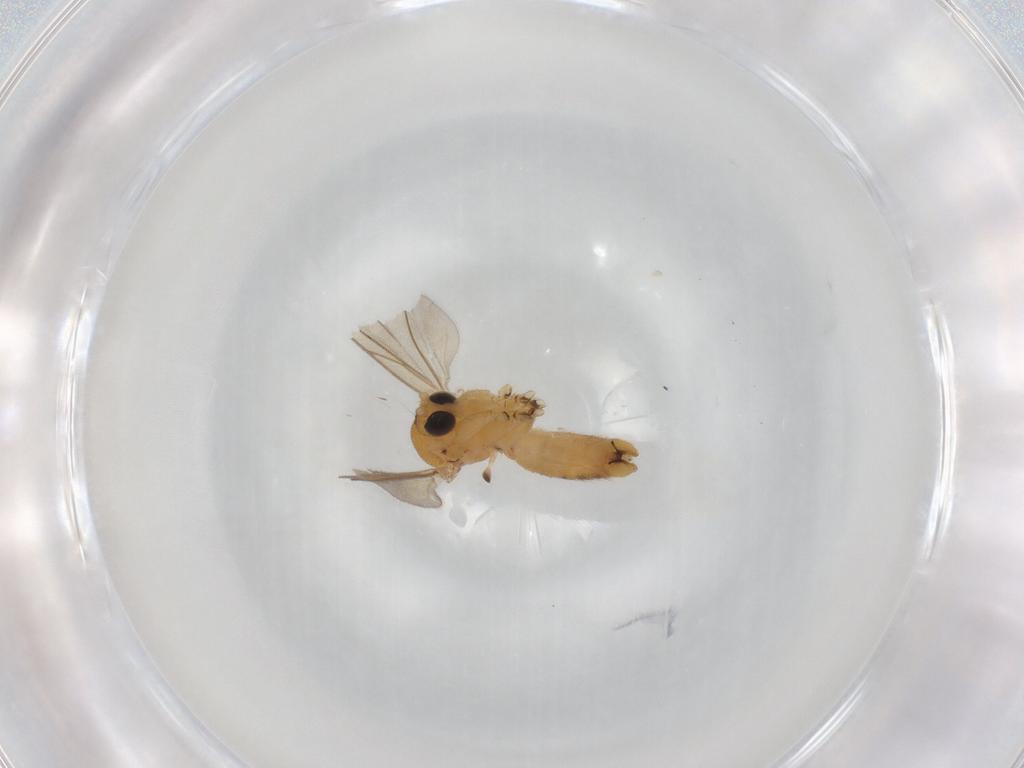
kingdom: Animalia
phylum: Arthropoda
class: Insecta
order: Diptera
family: Mycetophilidae
